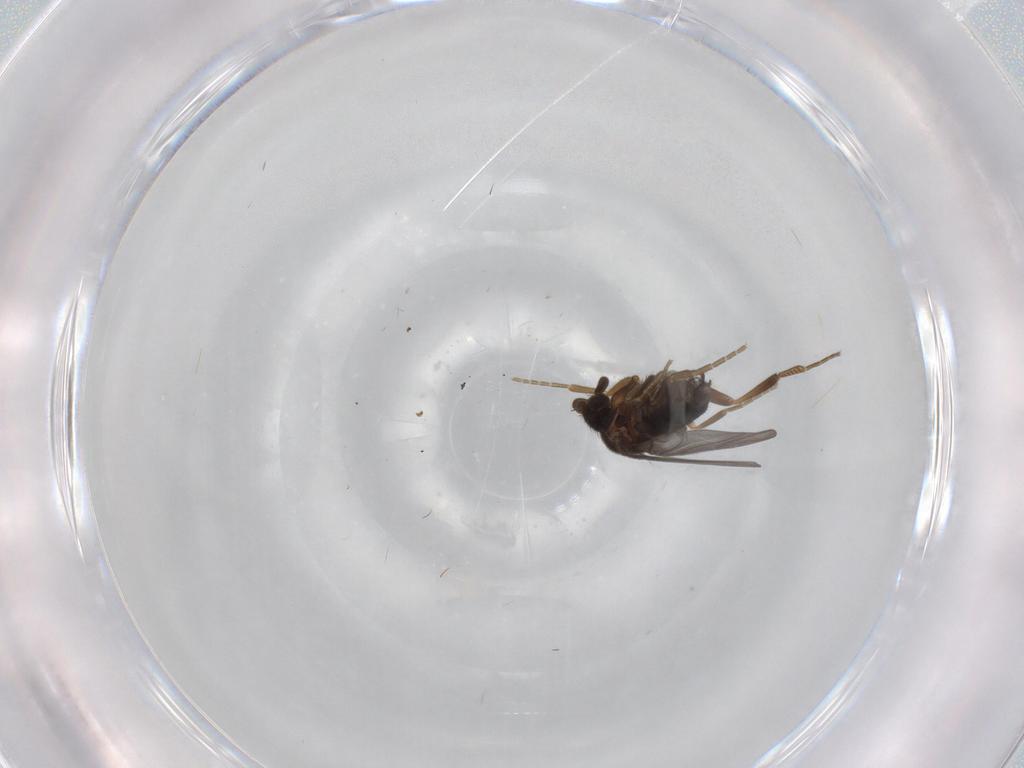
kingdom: Animalia
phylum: Arthropoda
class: Insecta
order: Diptera
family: Phoridae
